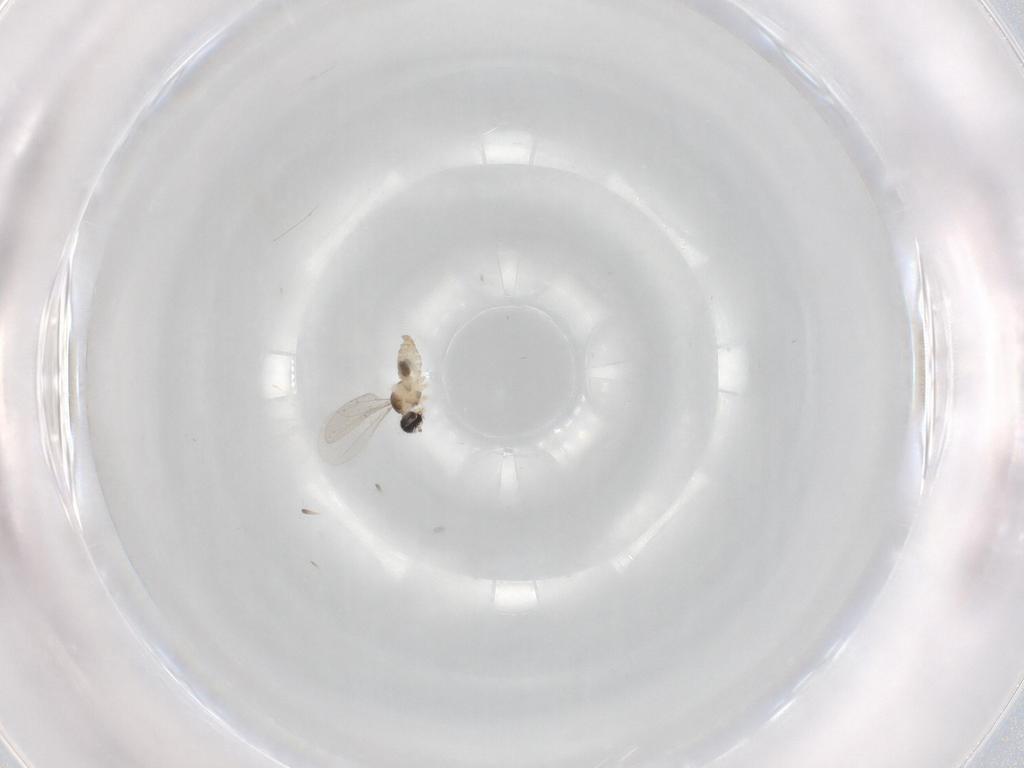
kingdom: Animalia
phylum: Arthropoda
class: Insecta
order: Diptera
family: Cecidomyiidae
